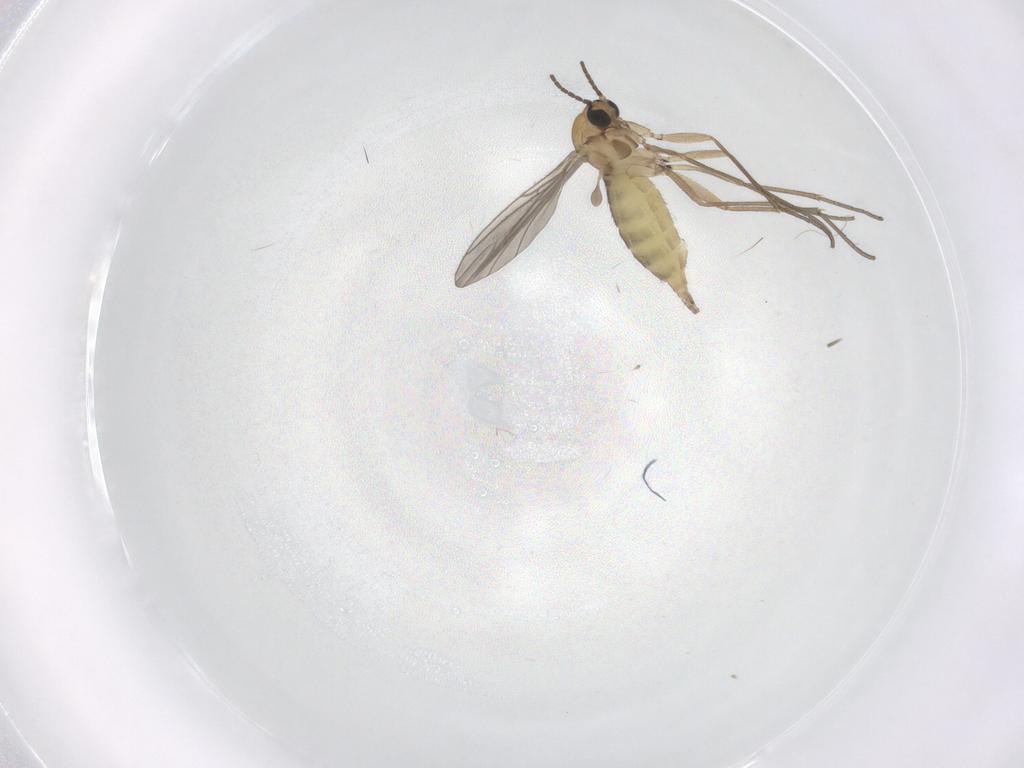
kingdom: Animalia
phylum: Arthropoda
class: Insecta
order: Diptera
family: Sciaridae
